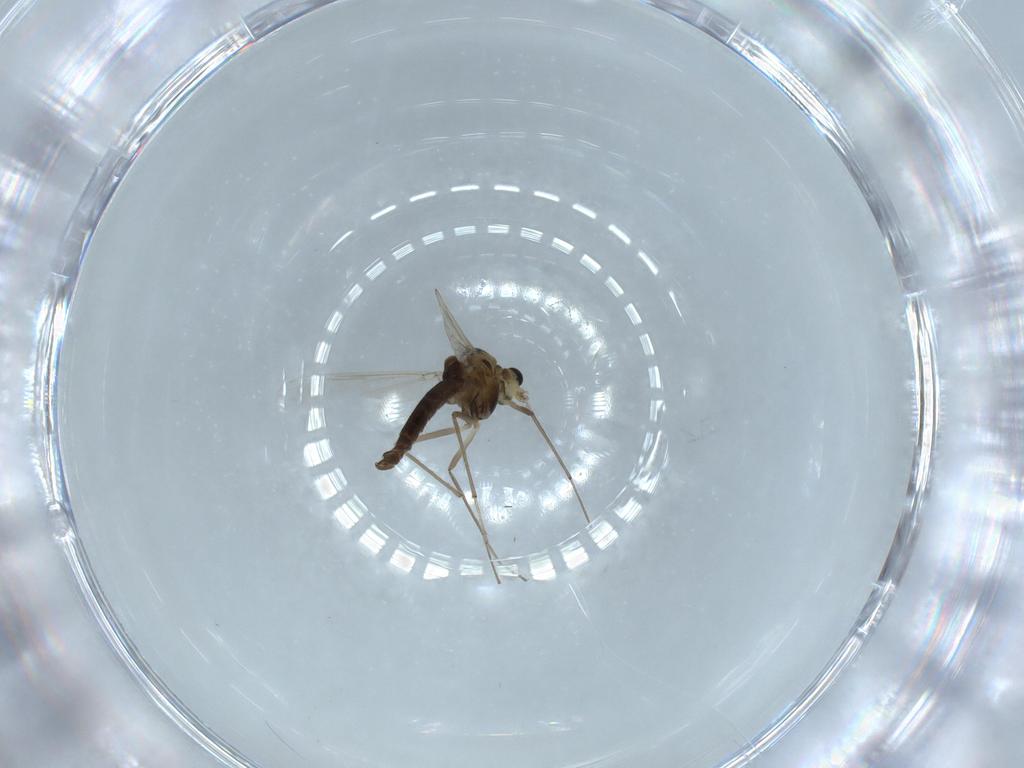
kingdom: Animalia
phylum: Arthropoda
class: Insecta
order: Diptera
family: Chironomidae
